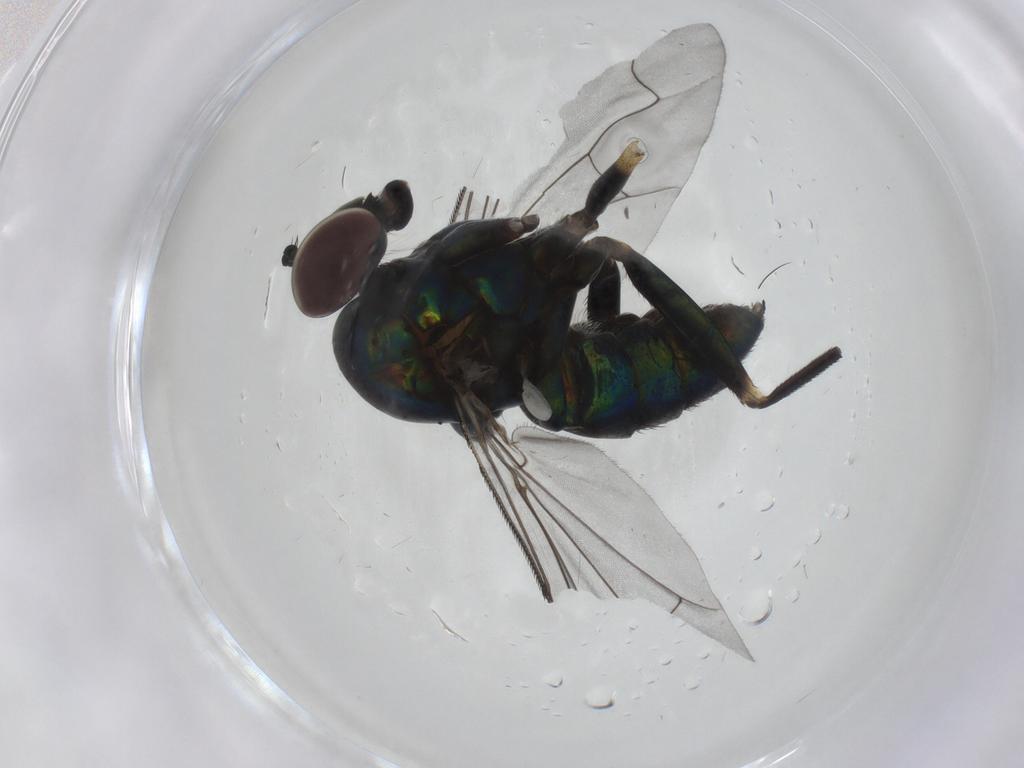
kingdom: Animalia
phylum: Arthropoda
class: Insecta
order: Diptera
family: Dolichopodidae
